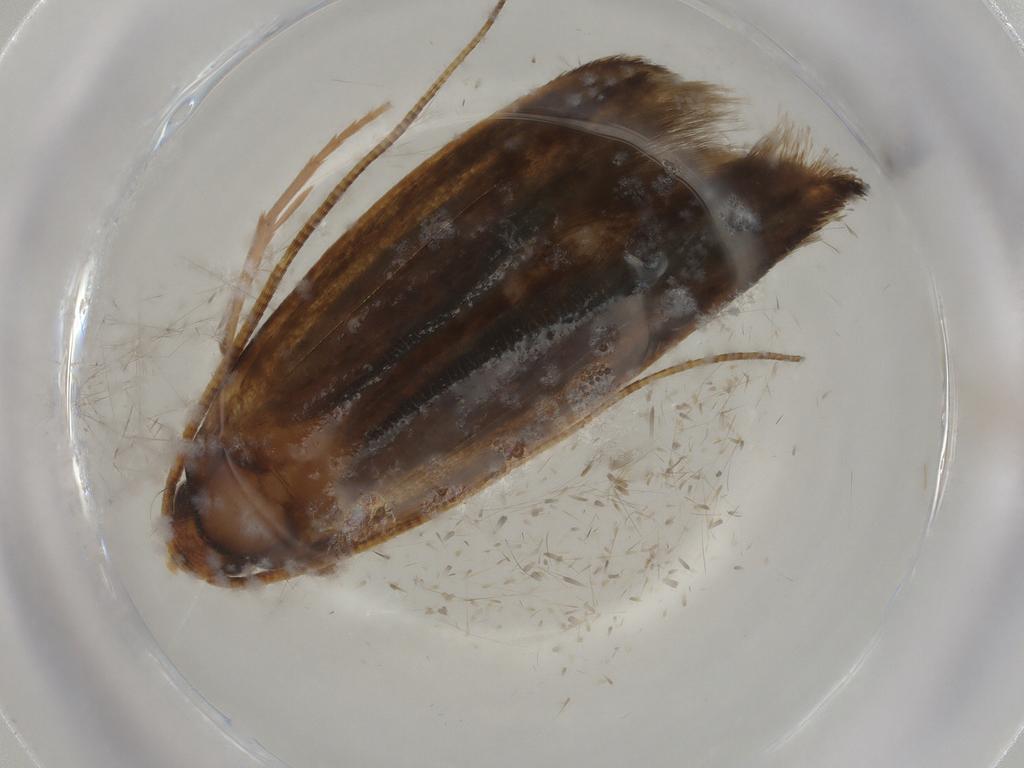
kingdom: Animalia
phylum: Arthropoda
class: Insecta
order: Lepidoptera
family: Tineidae
